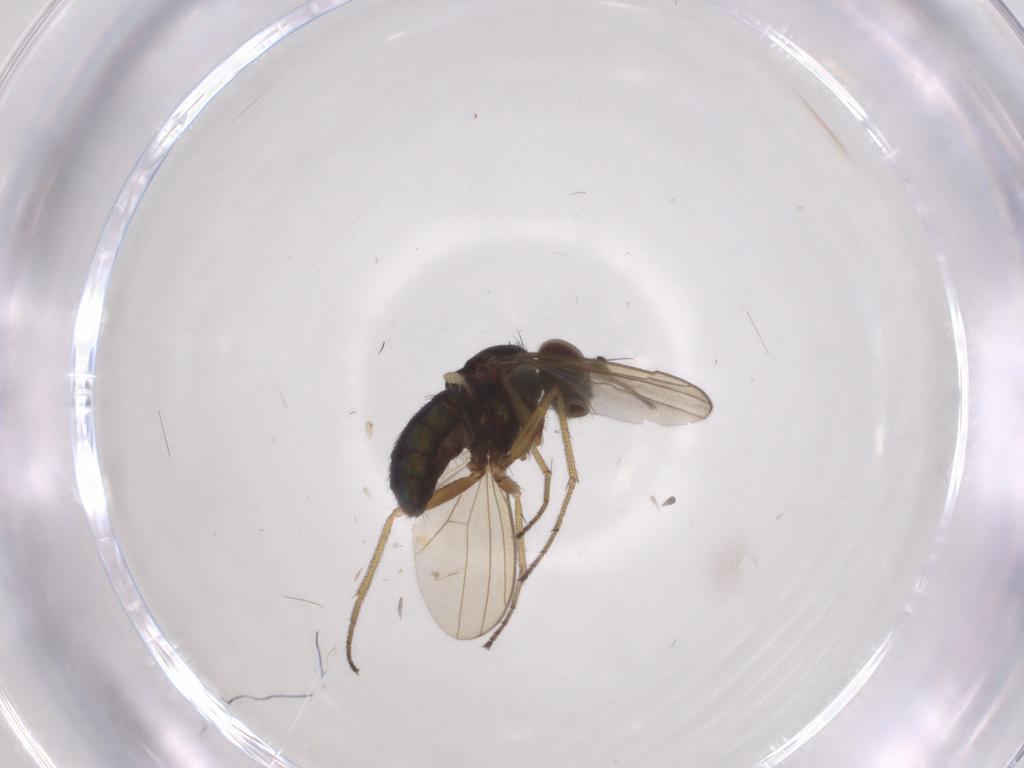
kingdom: Animalia
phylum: Arthropoda
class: Insecta
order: Diptera
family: Dolichopodidae
